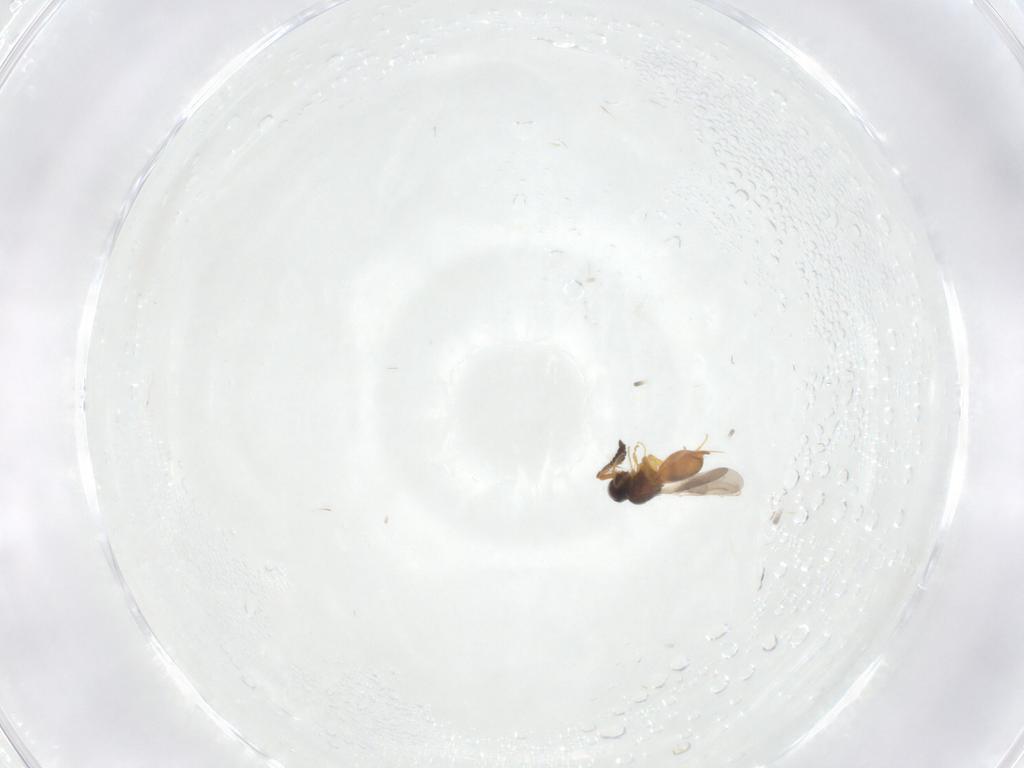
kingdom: Animalia
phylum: Arthropoda
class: Insecta
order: Hymenoptera
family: Ceraphronidae
